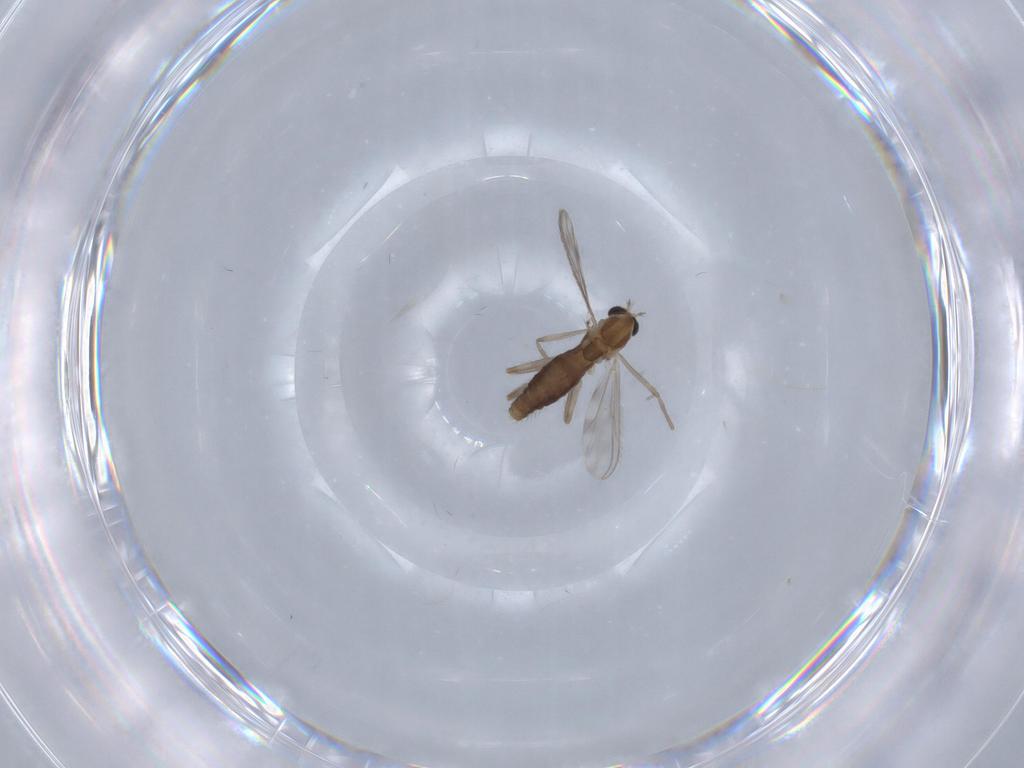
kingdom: Animalia
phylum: Arthropoda
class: Insecta
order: Diptera
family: Chironomidae
